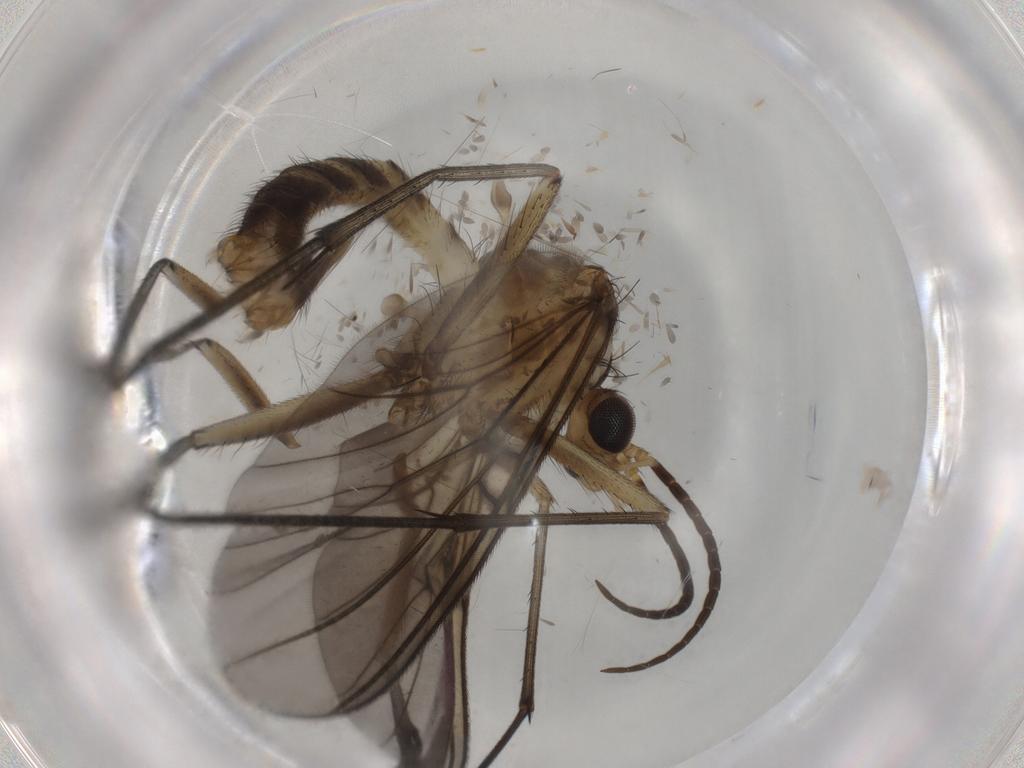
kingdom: Animalia
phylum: Arthropoda
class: Insecta
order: Diptera
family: Mycetophilidae
